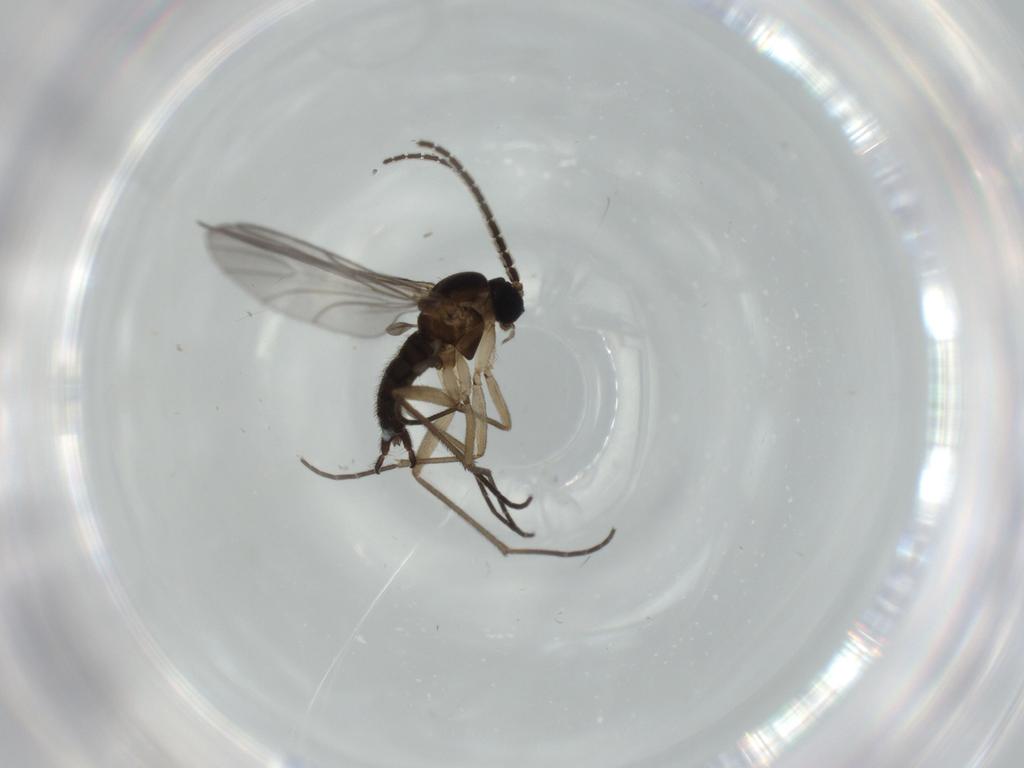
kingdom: Animalia
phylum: Arthropoda
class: Insecta
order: Diptera
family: Sciaridae
